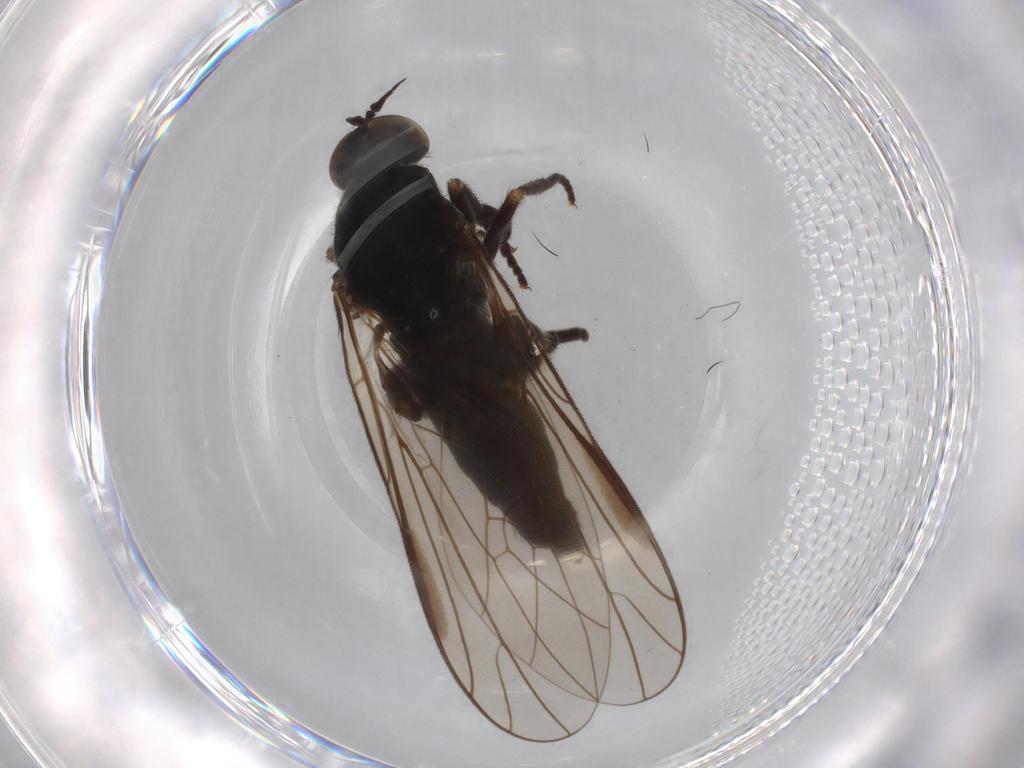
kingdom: Animalia
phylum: Arthropoda
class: Insecta
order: Diptera
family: Empididae
